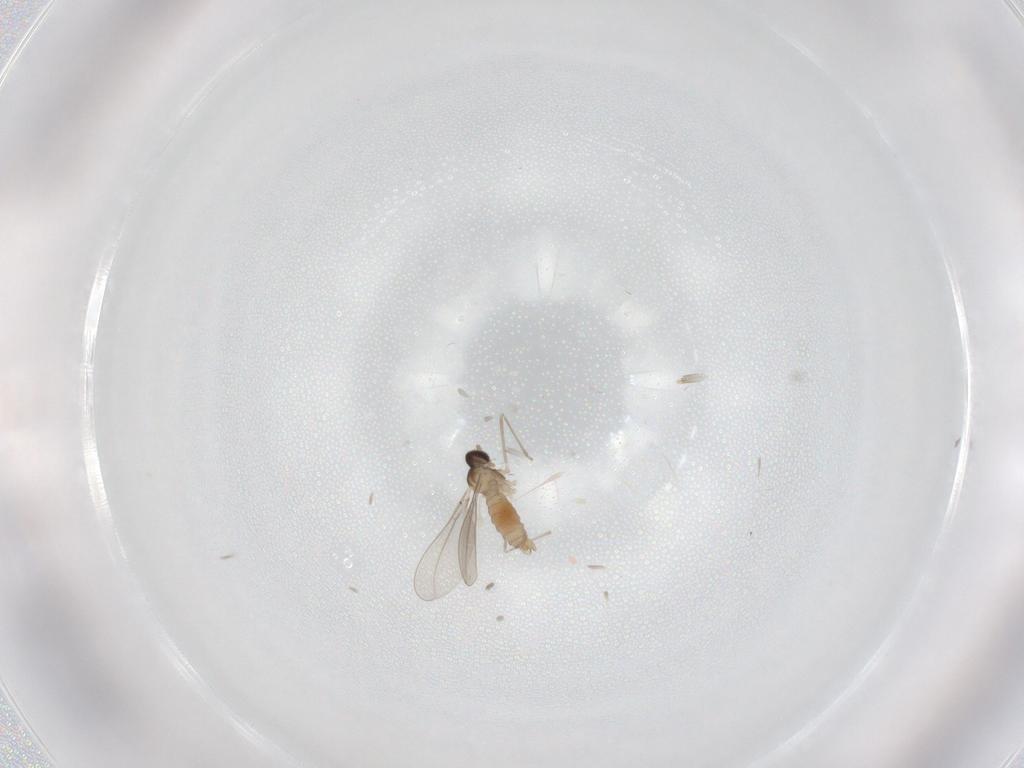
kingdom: Animalia
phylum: Arthropoda
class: Insecta
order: Diptera
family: Cecidomyiidae
